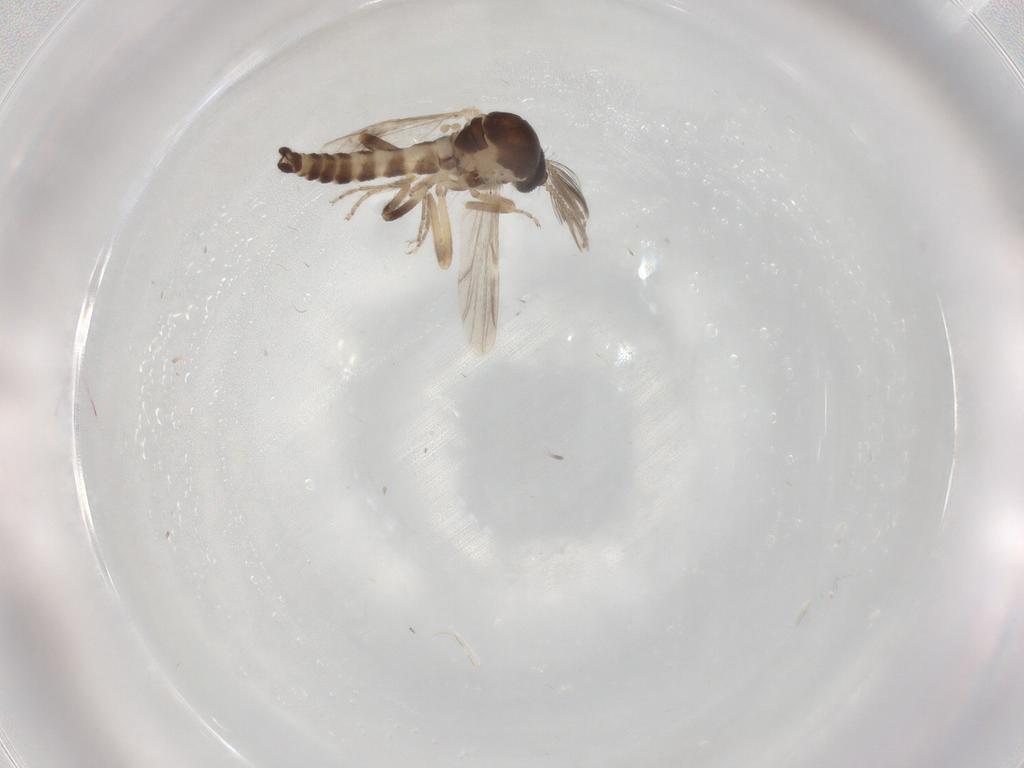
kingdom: Animalia
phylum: Arthropoda
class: Insecta
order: Diptera
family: Ceratopogonidae
